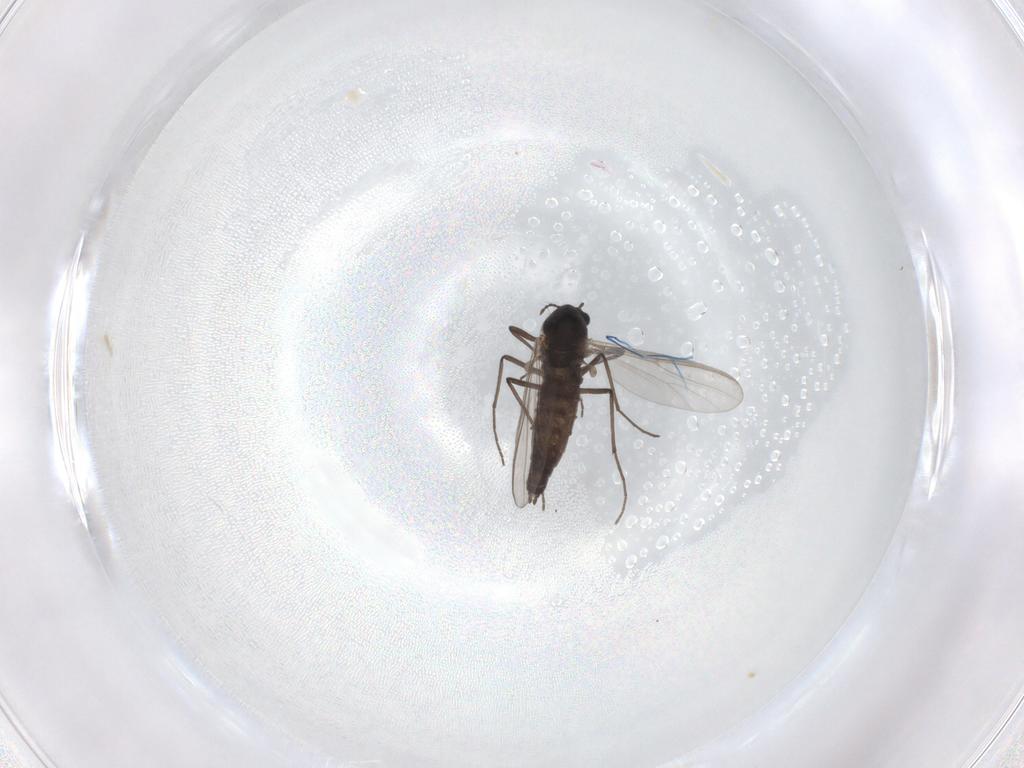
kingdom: Animalia
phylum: Arthropoda
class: Insecta
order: Diptera
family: Chironomidae
